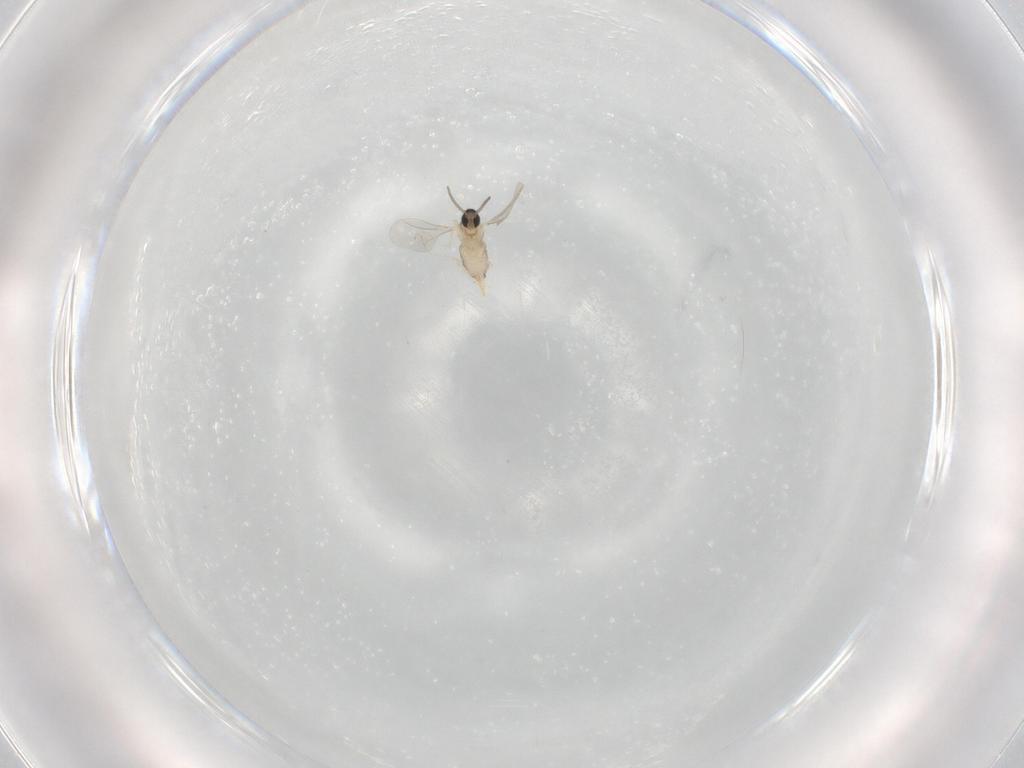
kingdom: Animalia
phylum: Arthropoda
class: Insecta
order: Diptera
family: Cecidomyiidae
